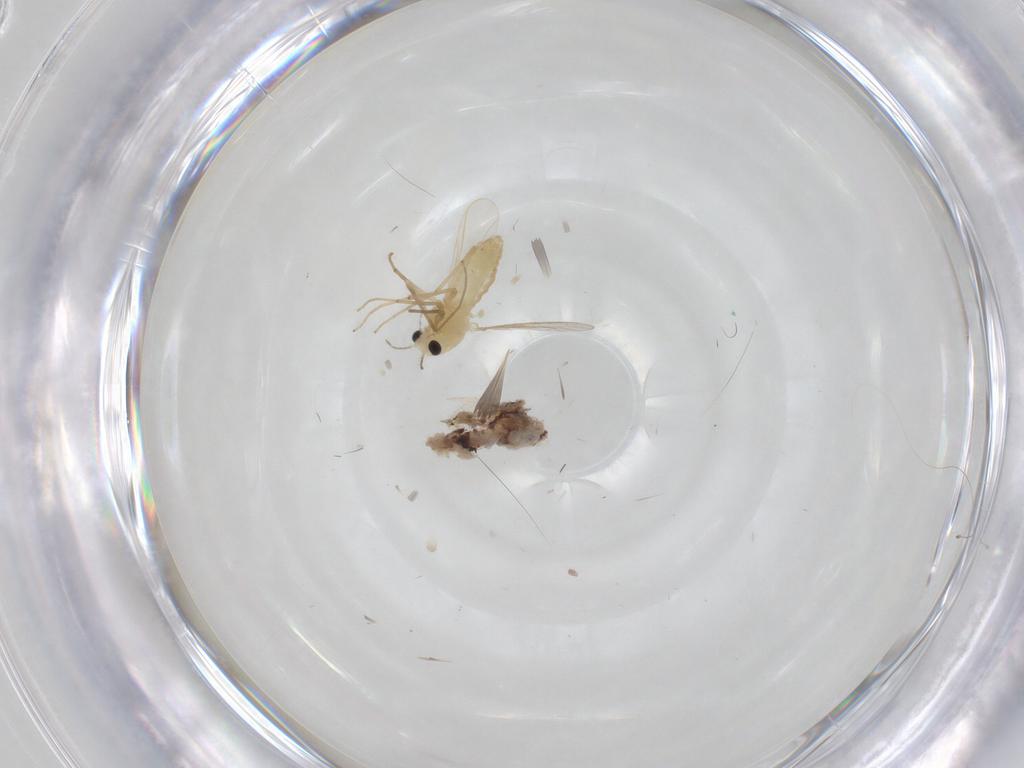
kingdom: Animalia
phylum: Arthropoda
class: Insecta
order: Diptera
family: Chironomidae
